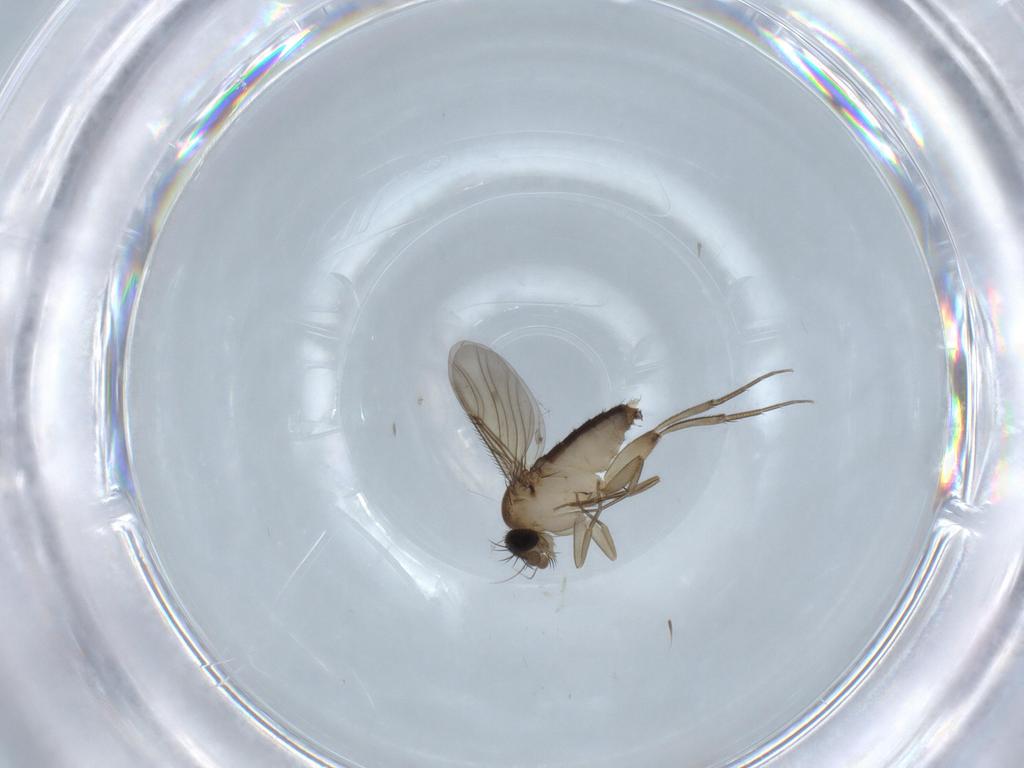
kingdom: Animalia
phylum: Arthropoda
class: Insecta
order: Diptera
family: Phoridae
